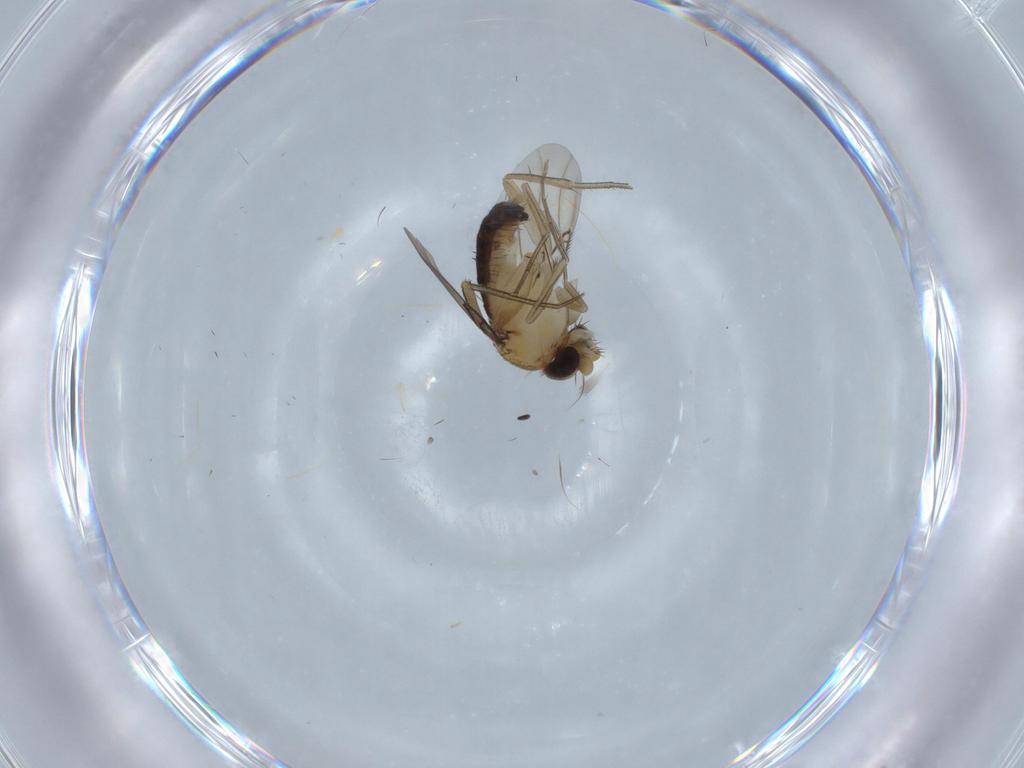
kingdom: Animalia
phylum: Arthropoda
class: Insecta
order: Diptera
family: Phoridae
